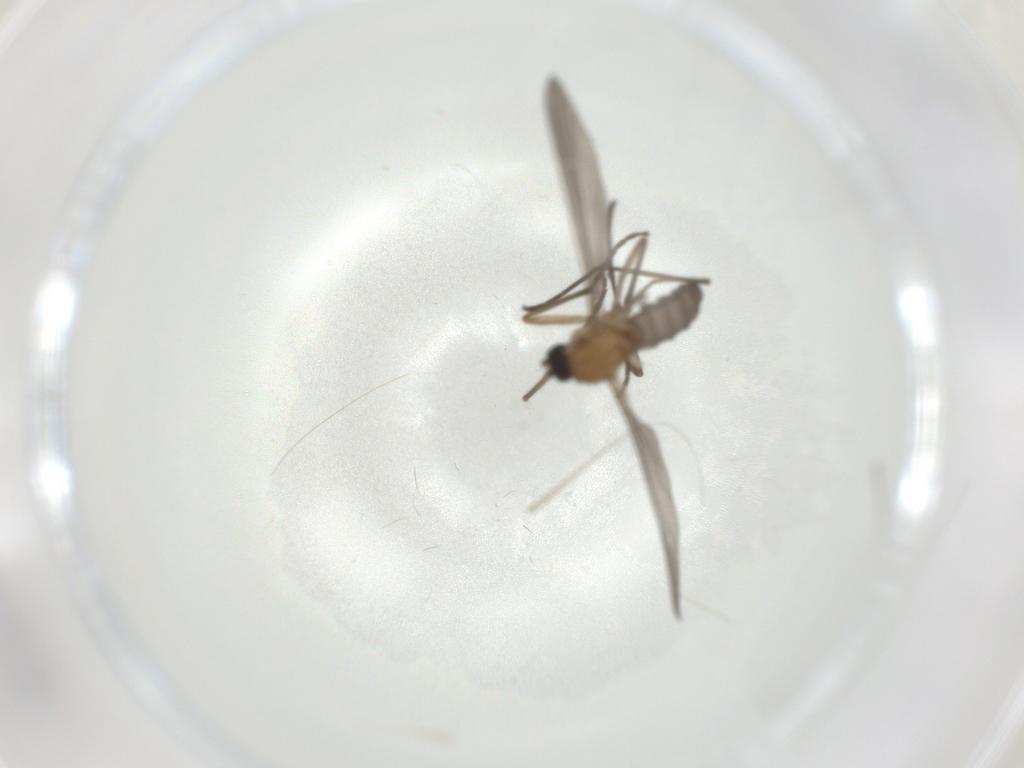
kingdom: Animalia
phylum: Arthropoda
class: Insecta
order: Diptera
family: Sciaridae
